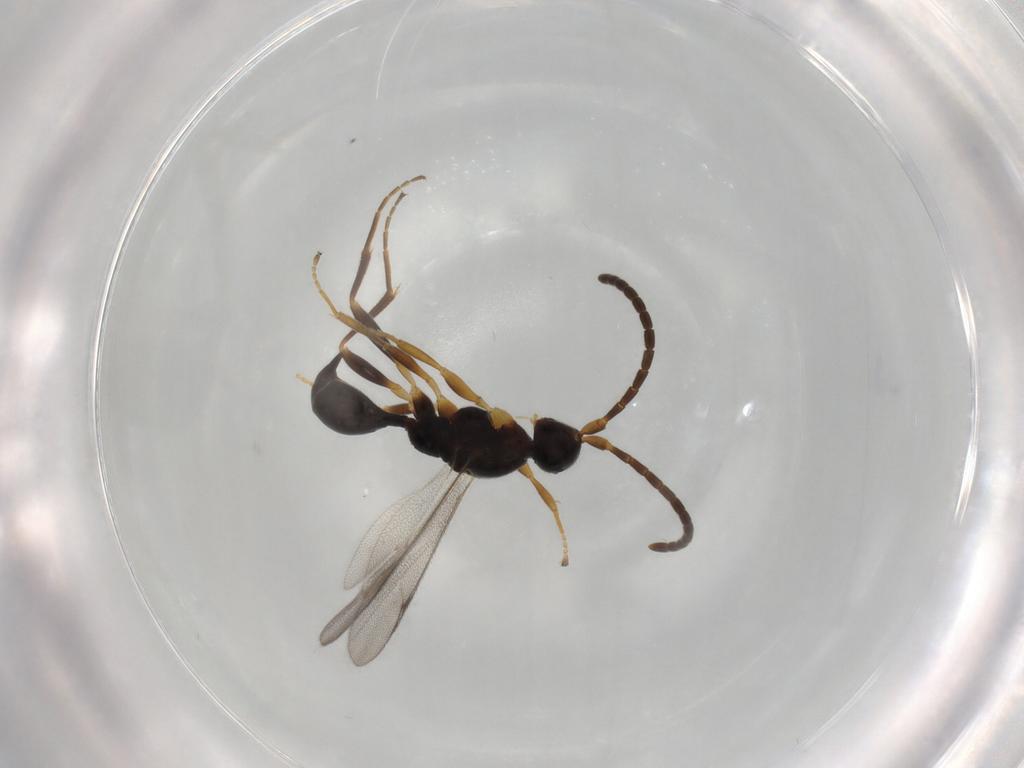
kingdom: Animalia
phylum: Arthropoda
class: Insecta
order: Hymenoptera
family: Proctotrupidae
